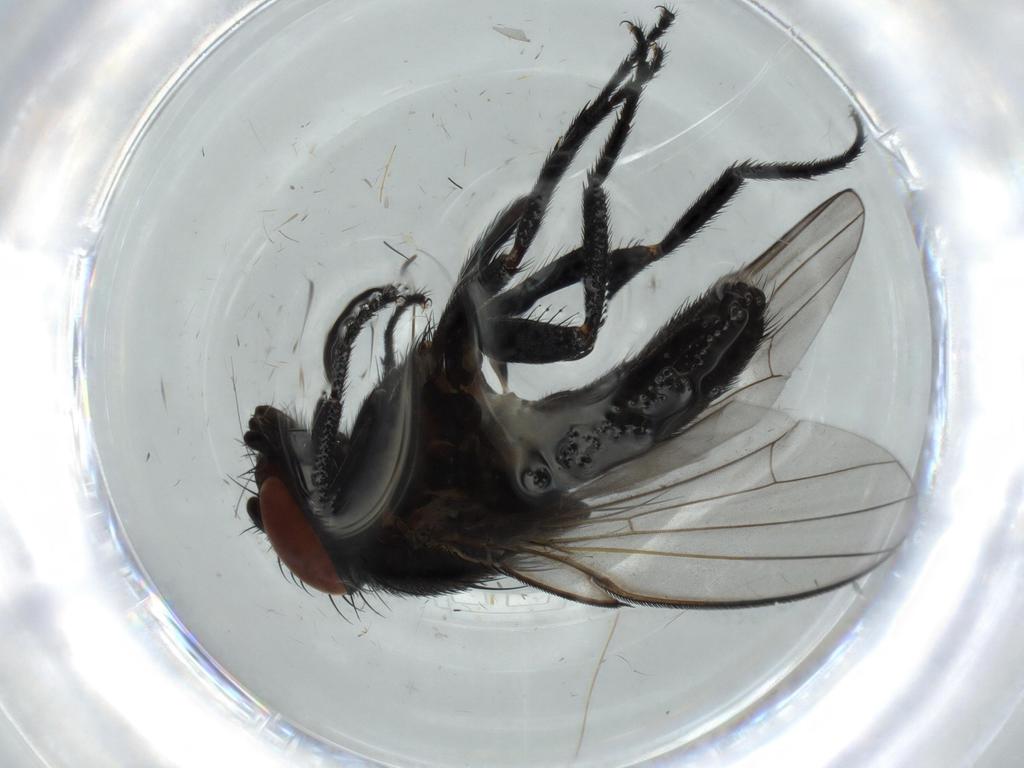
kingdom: Animalia
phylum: Arthropoda
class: Insecta
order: Diptera
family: Milichiidae
